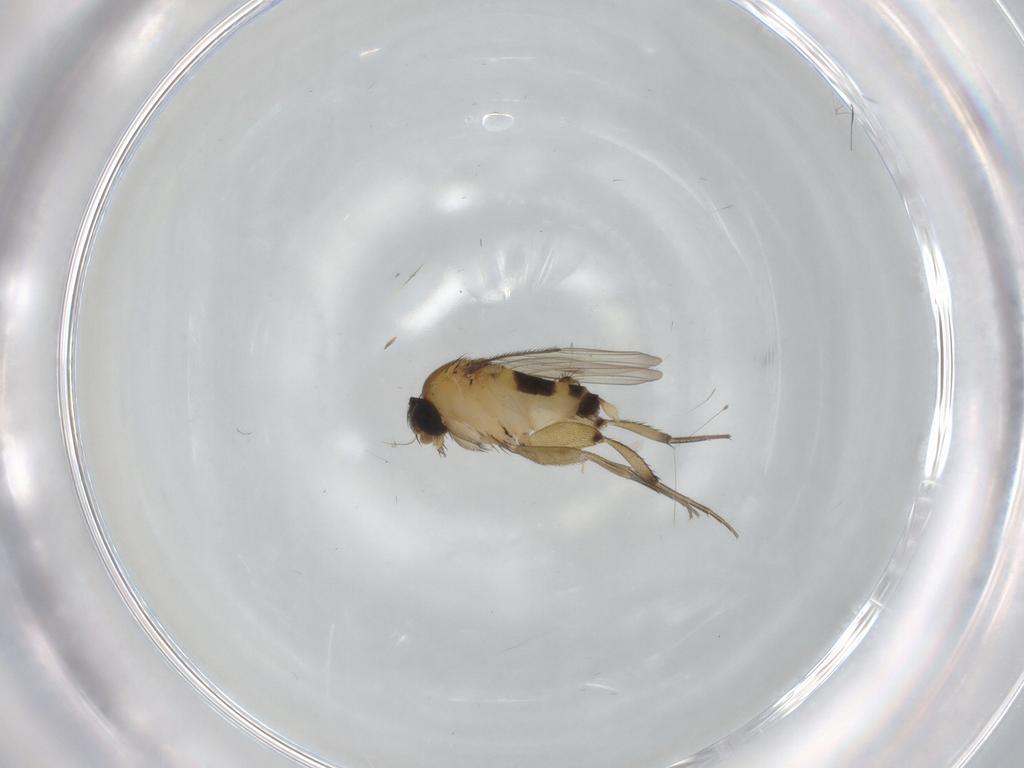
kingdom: Animalia
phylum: Arthropoda
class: Insecta
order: Diptera
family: Phoridae
